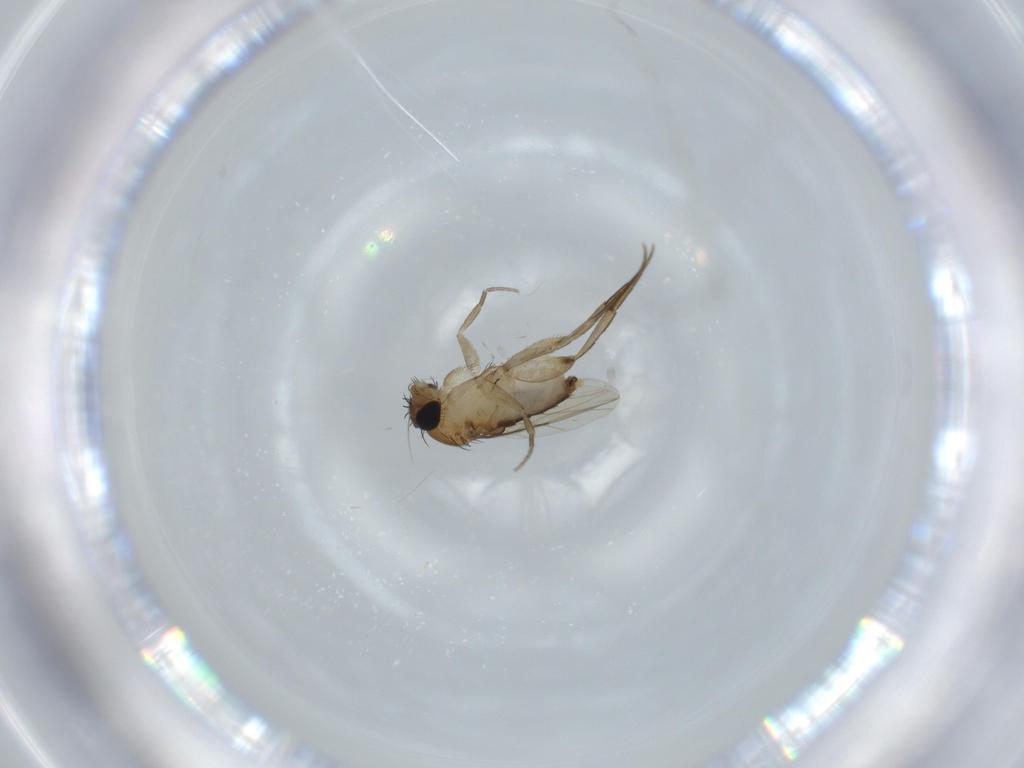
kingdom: Animalia
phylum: Arthropoda
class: Insecta
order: Diptera
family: Phoridae
